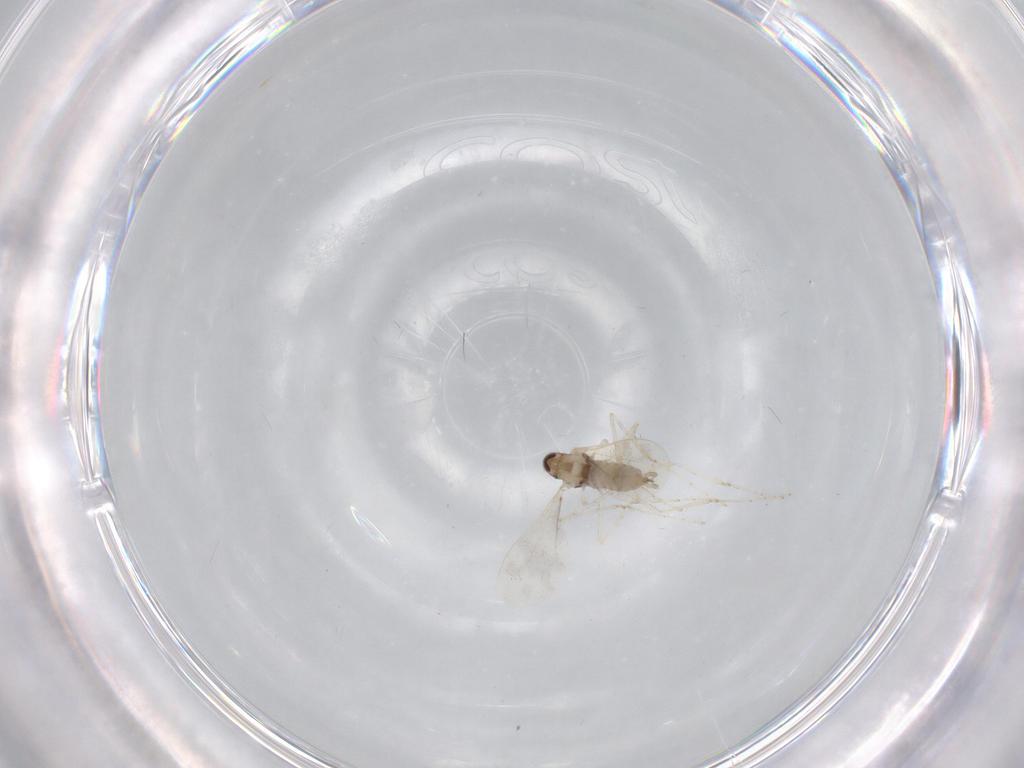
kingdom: Animalia
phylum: Arthropoda
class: Insecta
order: Diptera
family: Cecidomyiidae
